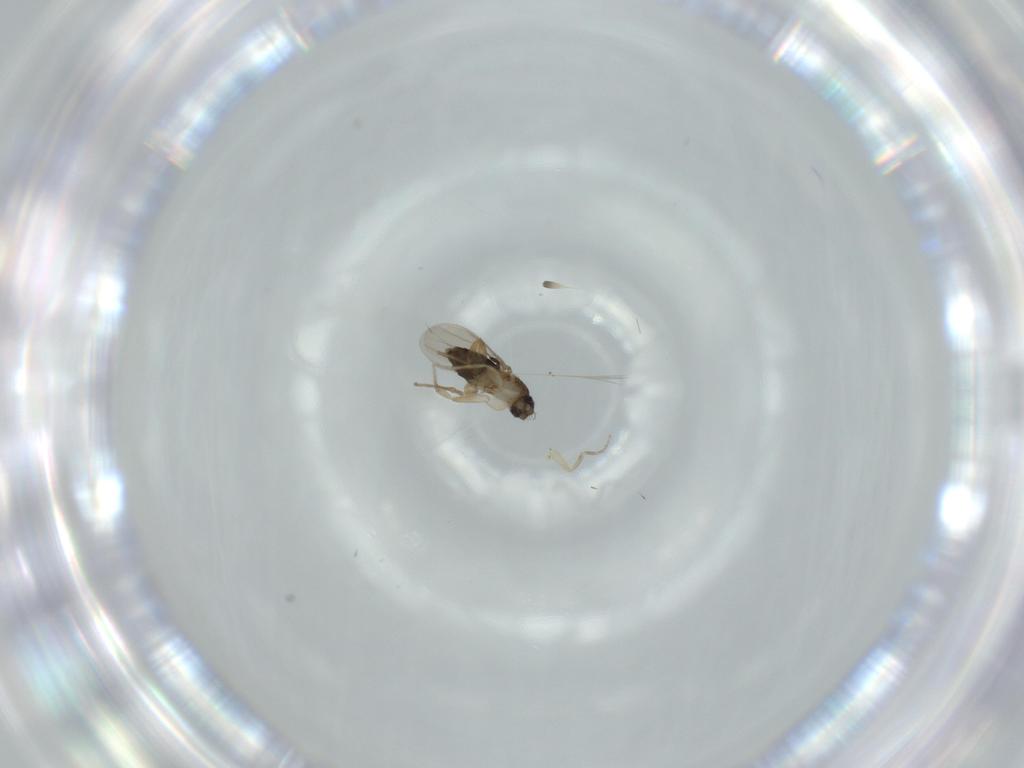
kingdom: Animalia
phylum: Arthropoda
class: Insecta
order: Diptera
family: Phoridae
